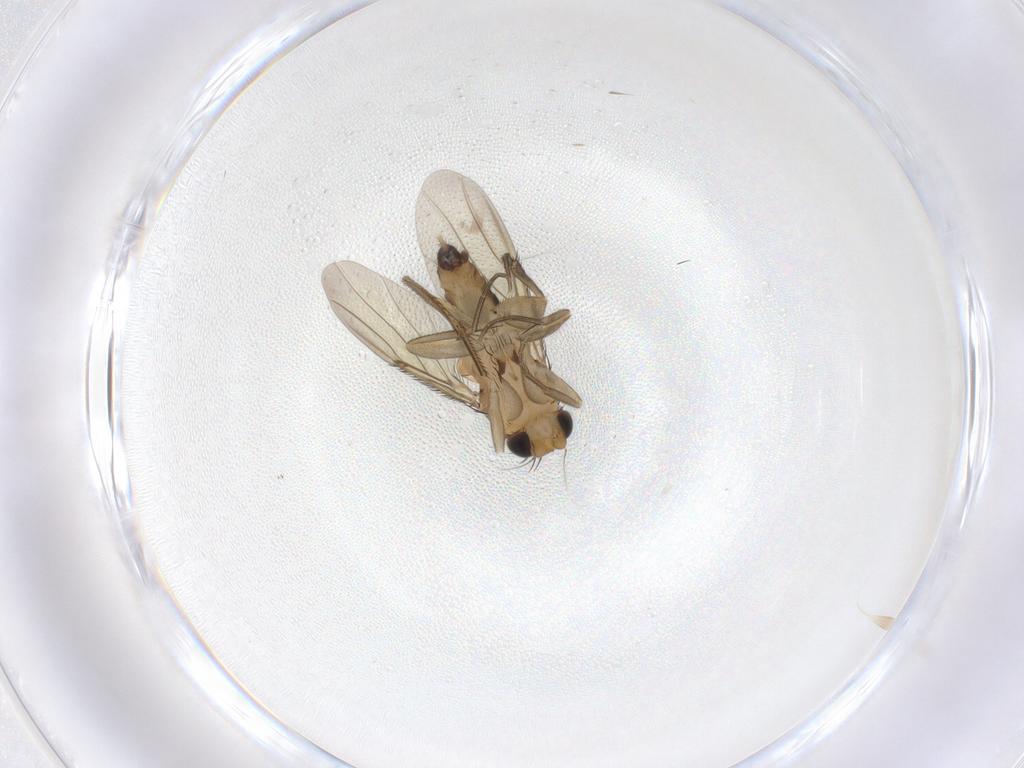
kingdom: Animalia
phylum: Arthropoda
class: Insecta
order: Diptera
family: Phoridae
